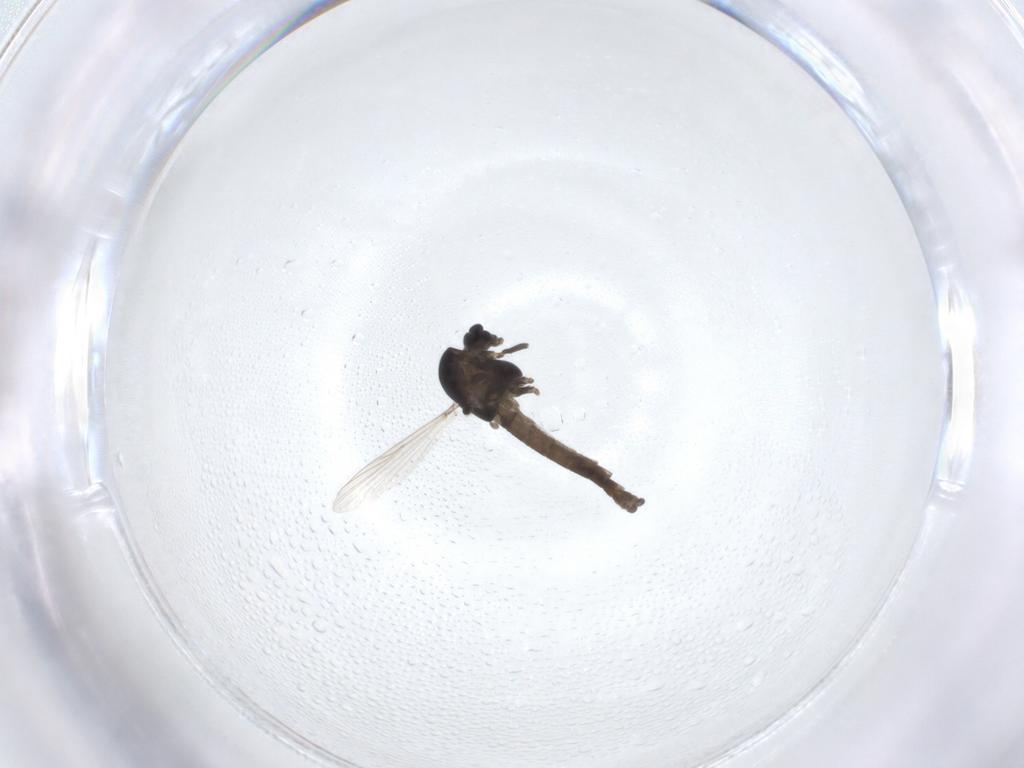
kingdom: Animalia
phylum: Arthropoda
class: Insecta
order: Diptera
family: Chironomidae
